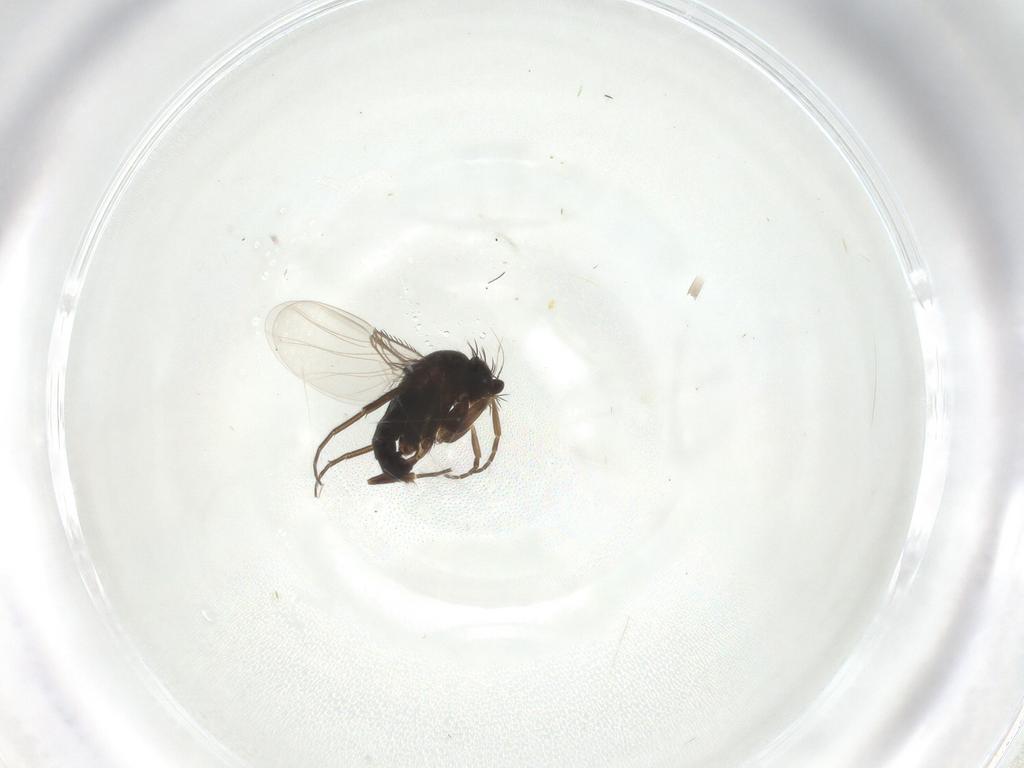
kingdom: Animalia
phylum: Arthropoda
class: Insecta
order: Diptera
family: Phoridae
